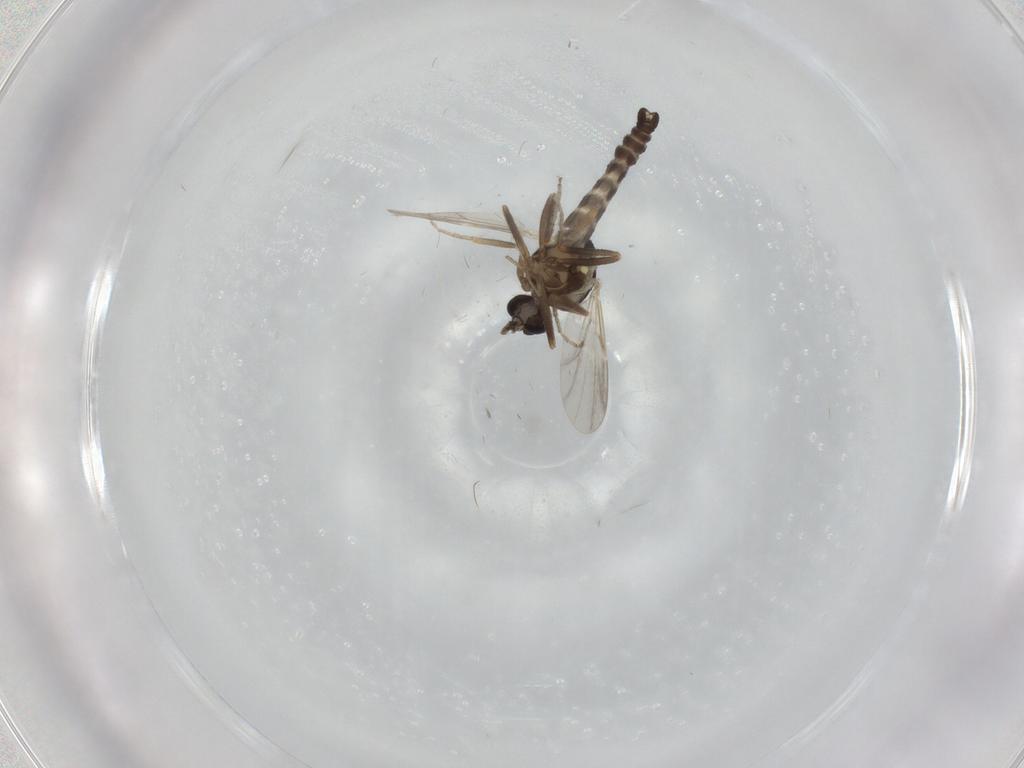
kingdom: Animalia
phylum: Arthropoda
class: Insecta
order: Diptera
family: Ceratopogonidae
